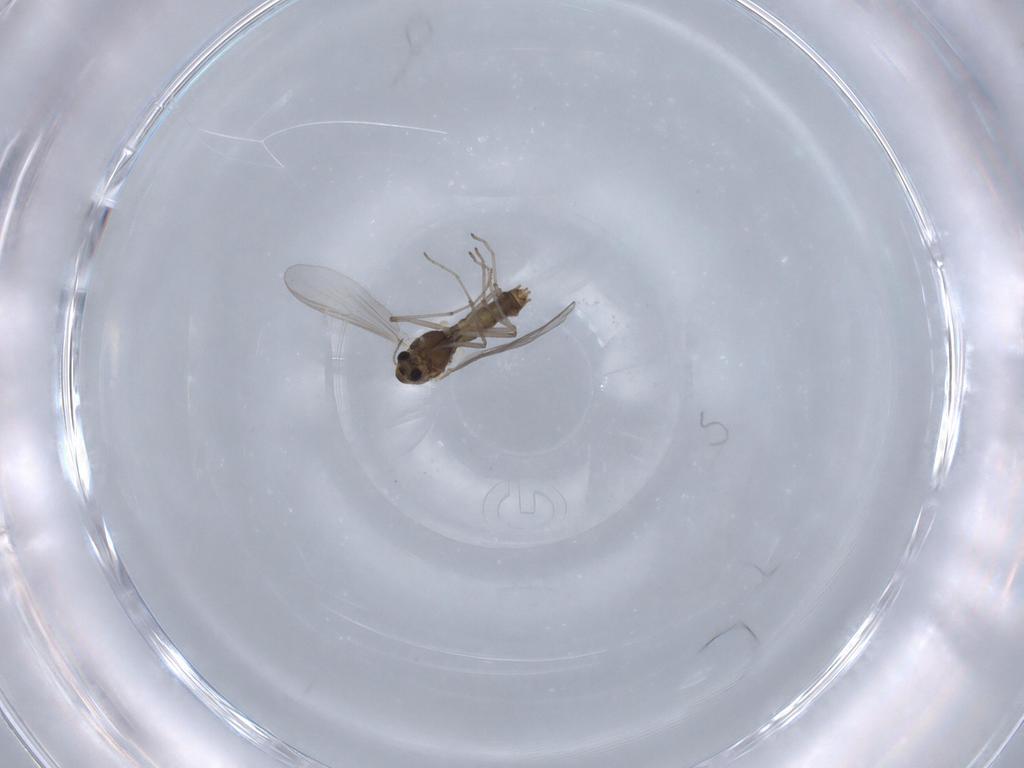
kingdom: Animalia
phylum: Arthropoda
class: Insecta
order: Diptera
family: Chironomidae
